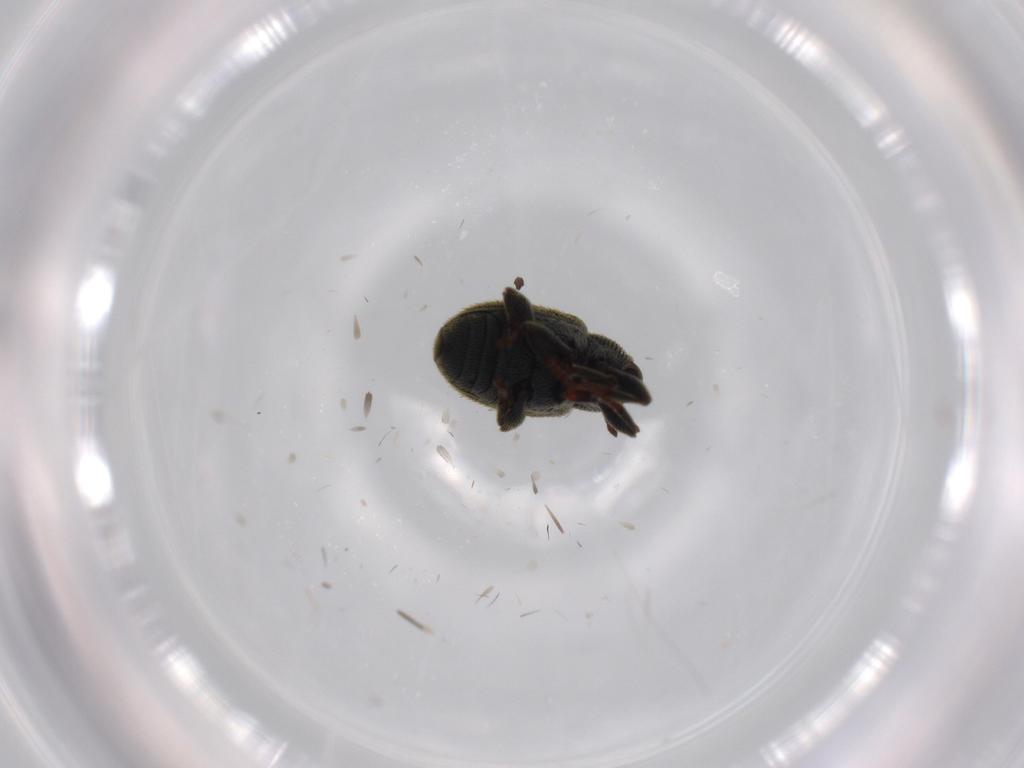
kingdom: Animalia
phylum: Arthropoda
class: Insecta
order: Coleoptera
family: Curculionidae
